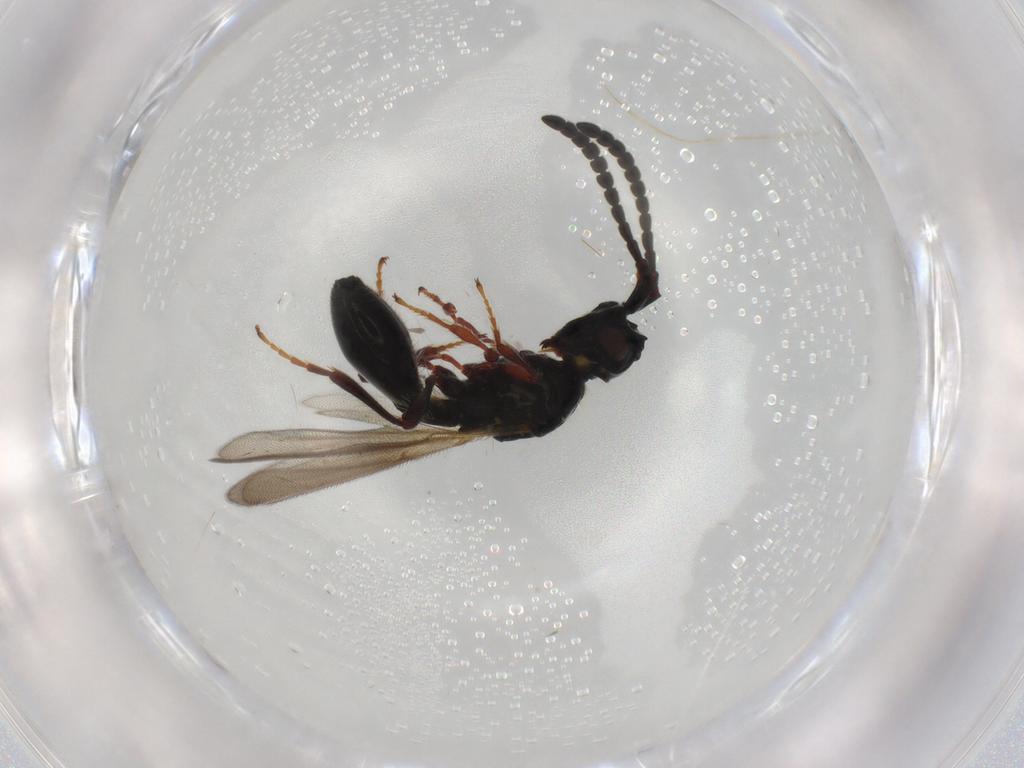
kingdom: Animalia
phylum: Arthropoda
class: Insecta
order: Hymenoptera
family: Diapriidae
